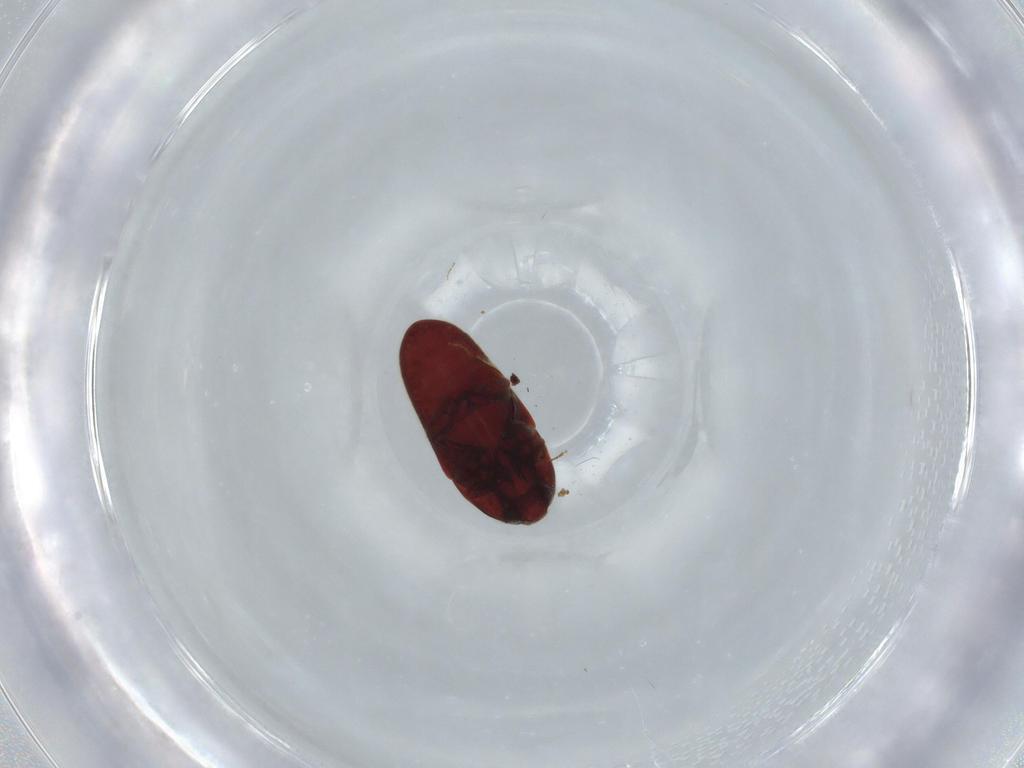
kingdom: Animalia
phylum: Arthropoda
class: Insecta
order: Coleoptera
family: Throscidae
